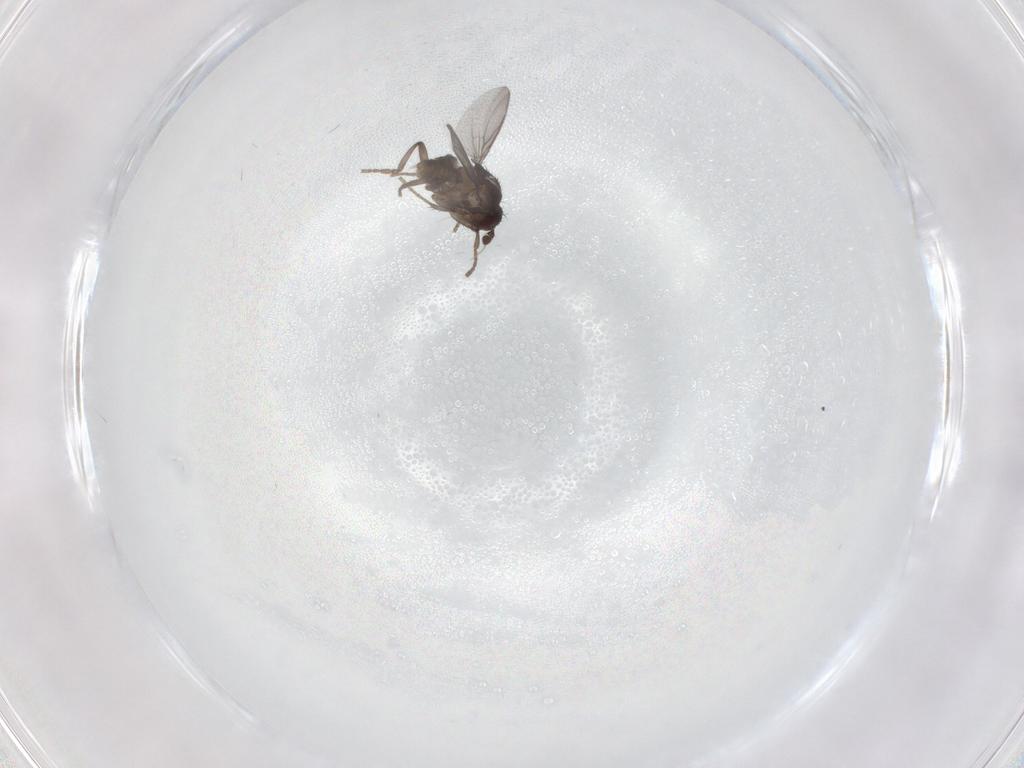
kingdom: Animalia
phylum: Arthropoda
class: Insecta
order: Diptera
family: Sphaeroceridae
